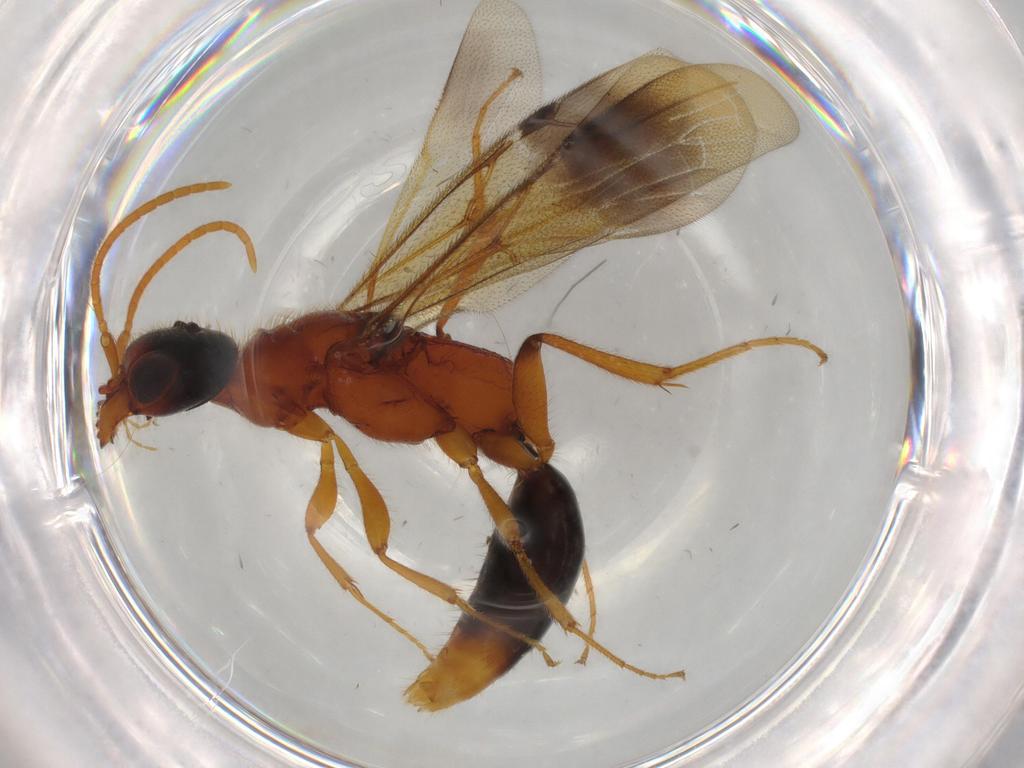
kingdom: Animalia
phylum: Arthropoda
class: Insecta
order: Hymenoptera
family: Bethylidae
